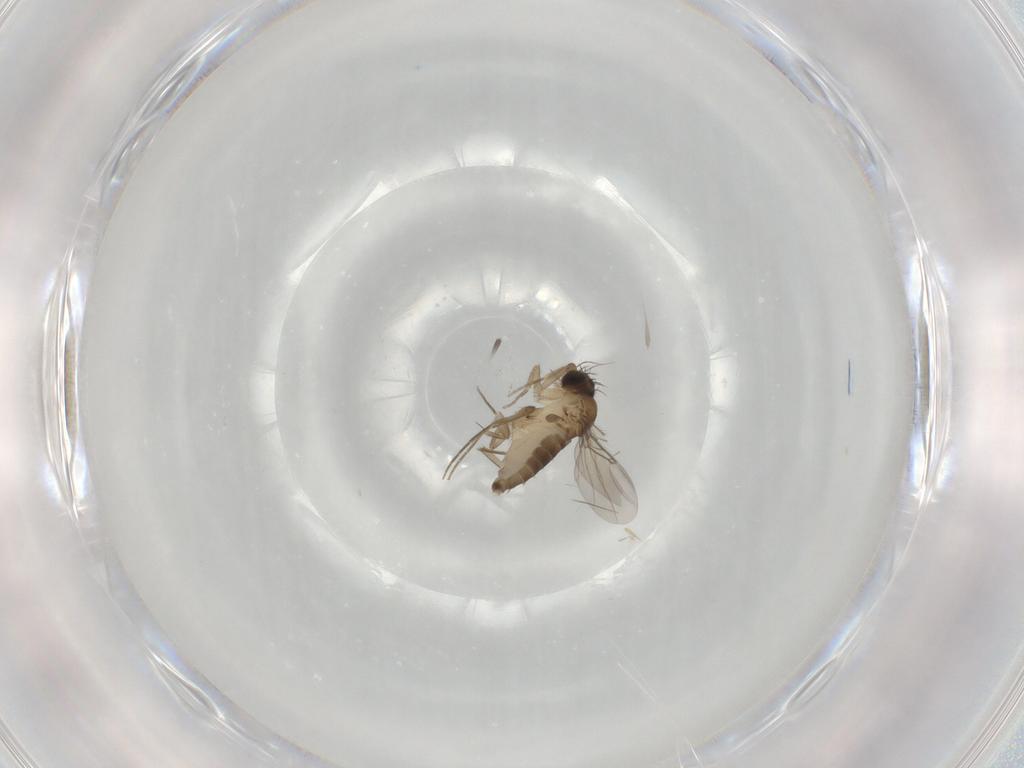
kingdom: Animalia
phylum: Arthropoda
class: Insecta
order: Diptera
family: Phoridae
